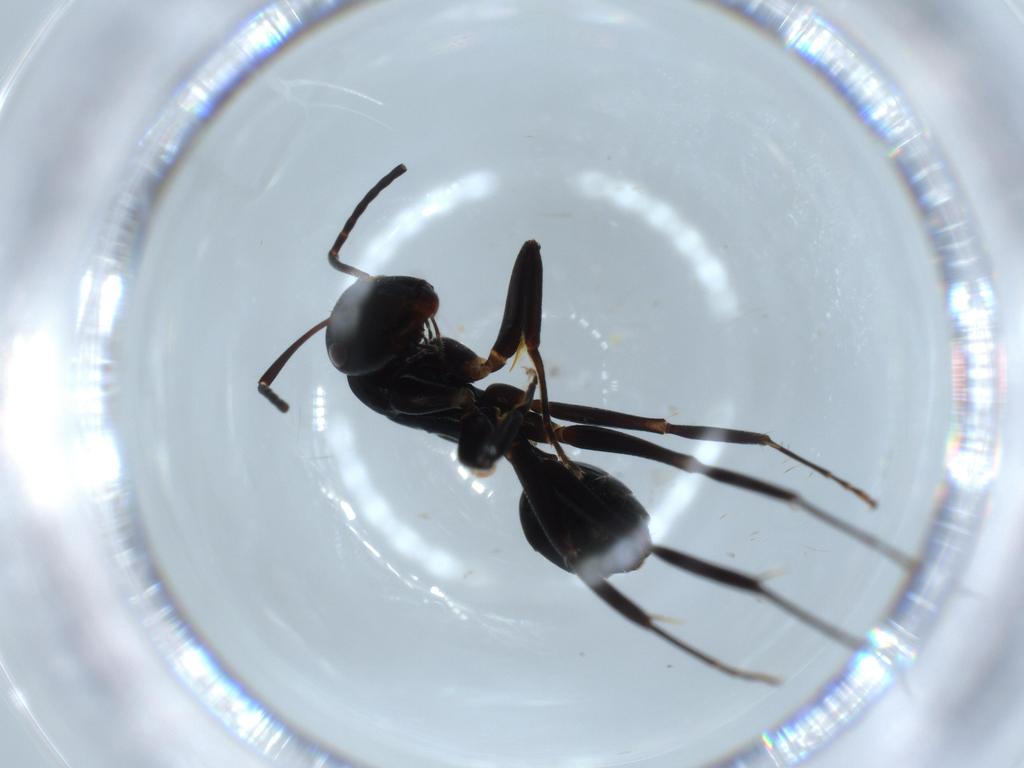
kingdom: Animalia
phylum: Arthropoda
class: Insecta
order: Hymenoptera
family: Formicidae
